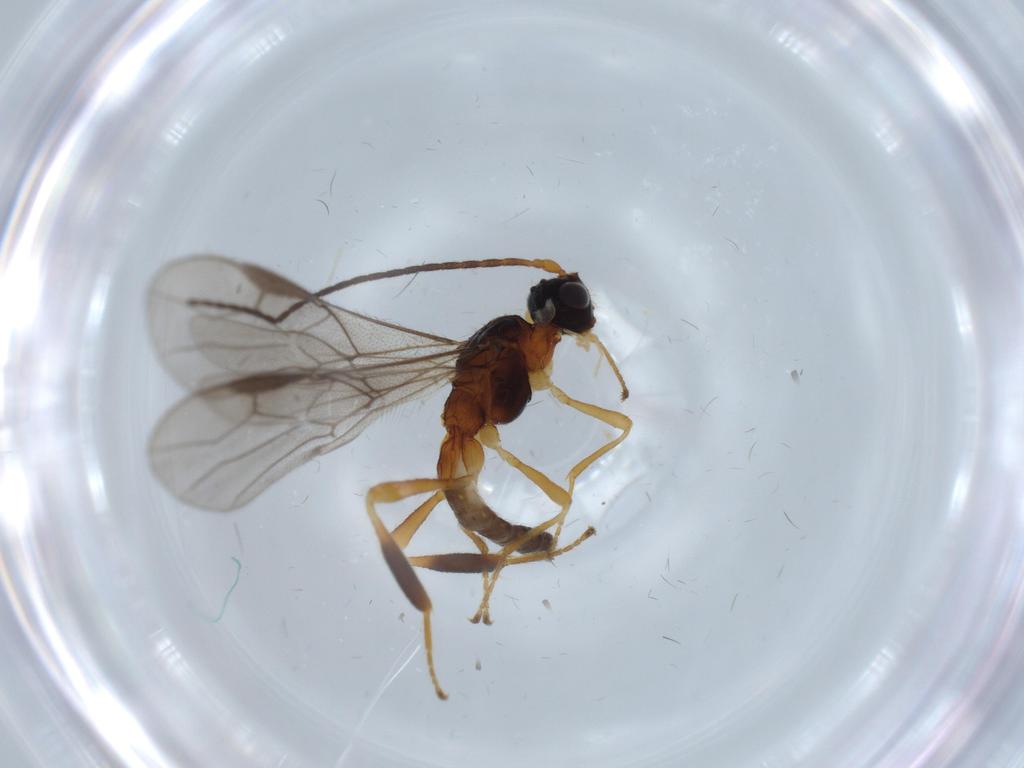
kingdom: Animalia
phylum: Arthropoda
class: Insecta
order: Hymenoptera
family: Braconidae
